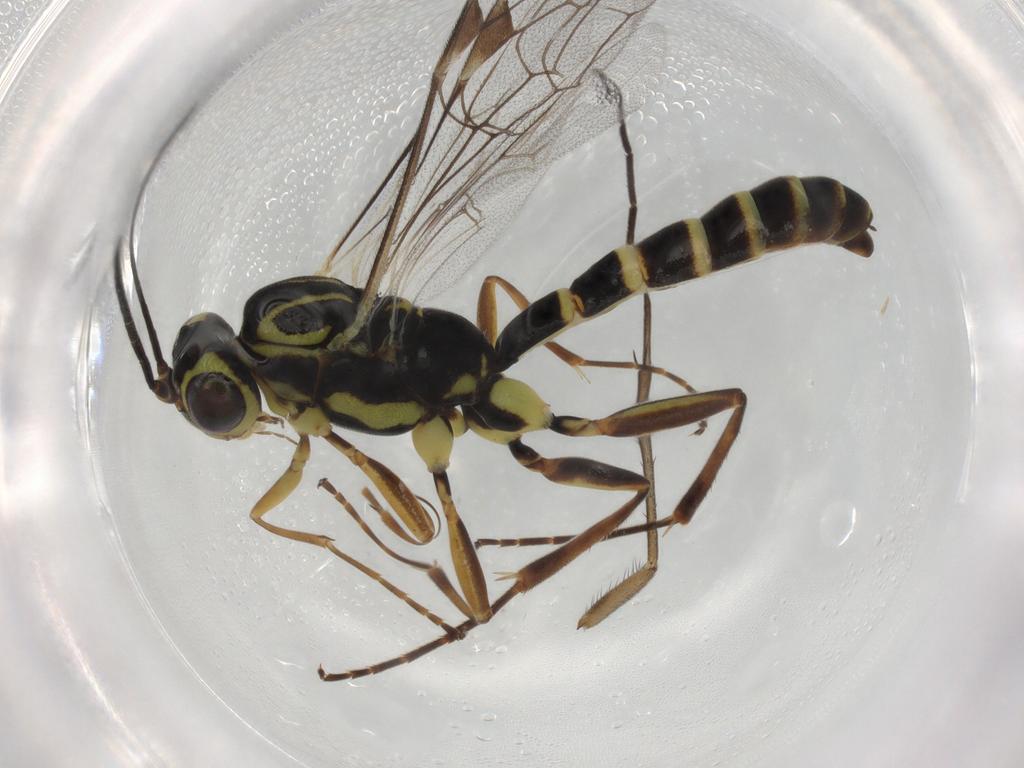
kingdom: Animalia
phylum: Arthropoda
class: Insecta
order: Hymenoptera
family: Ichneumonidae
